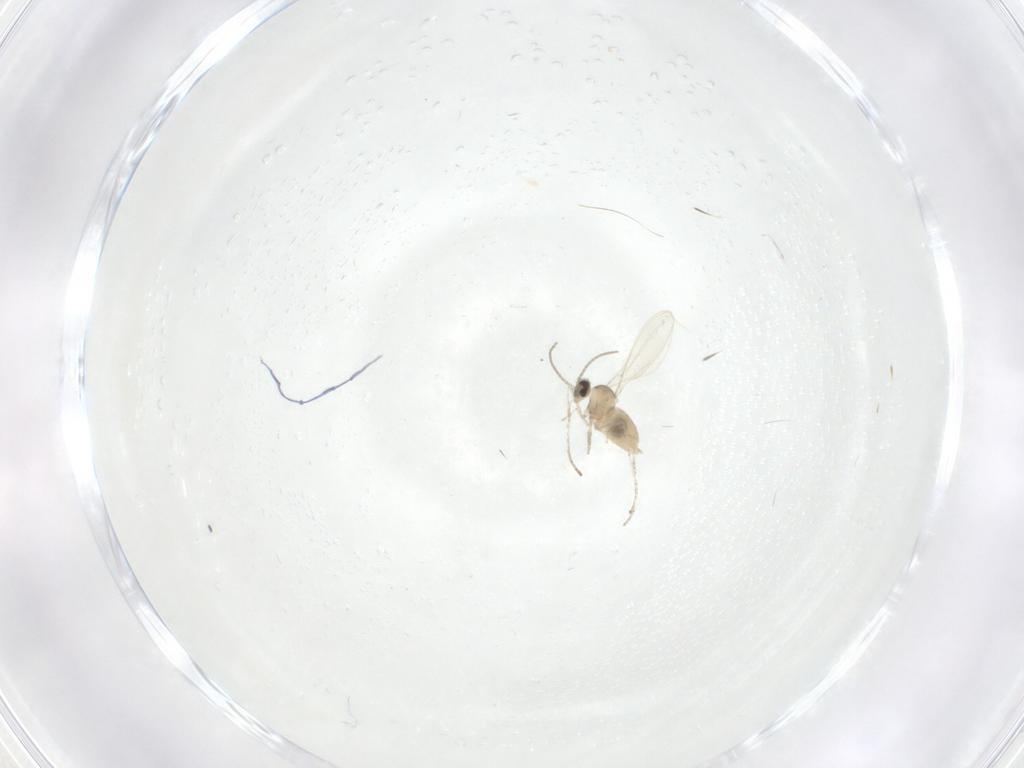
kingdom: Animalia
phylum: Arthropoda
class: Insecta
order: Diptera
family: Cecidomyiidae
